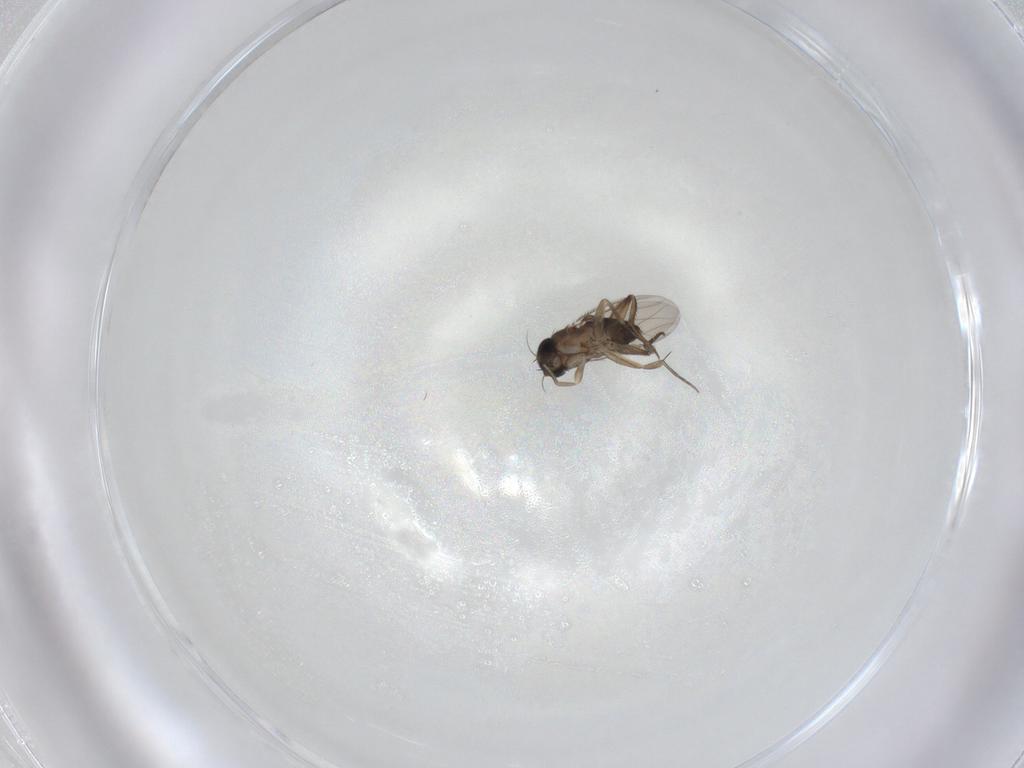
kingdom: Animalia
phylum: Arthropoda
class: Insecta
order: Diptera
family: Phoridae
